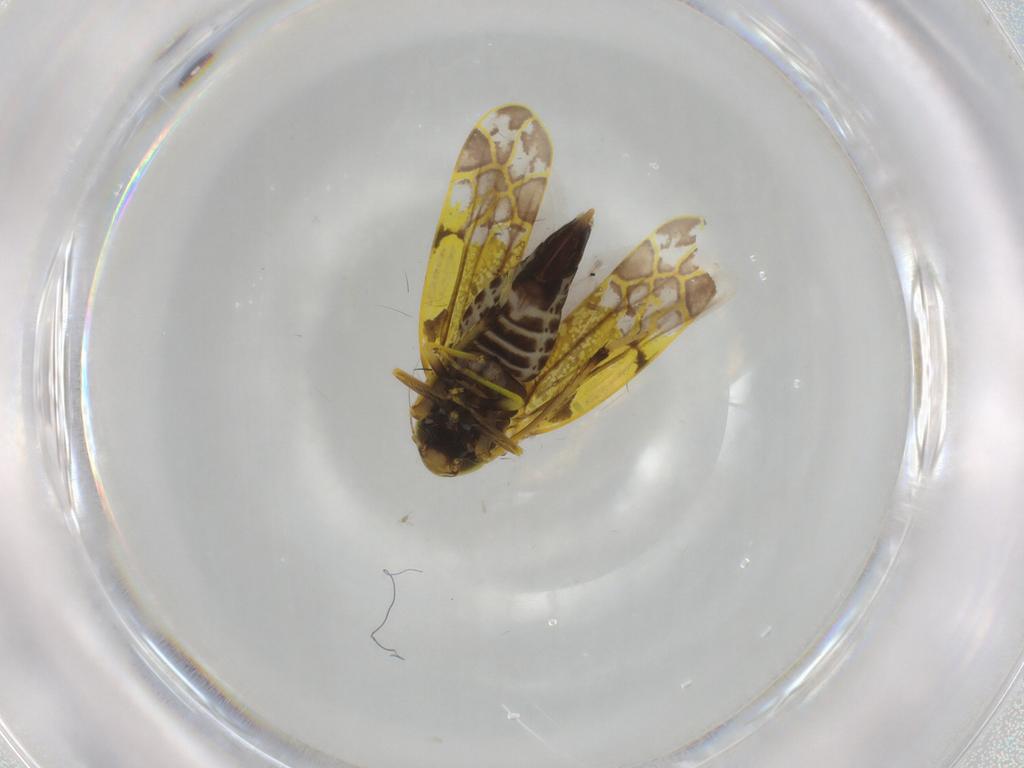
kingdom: Animalia
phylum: Arthropoda
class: Insecta
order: Hemiptera
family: Cicadellidae
